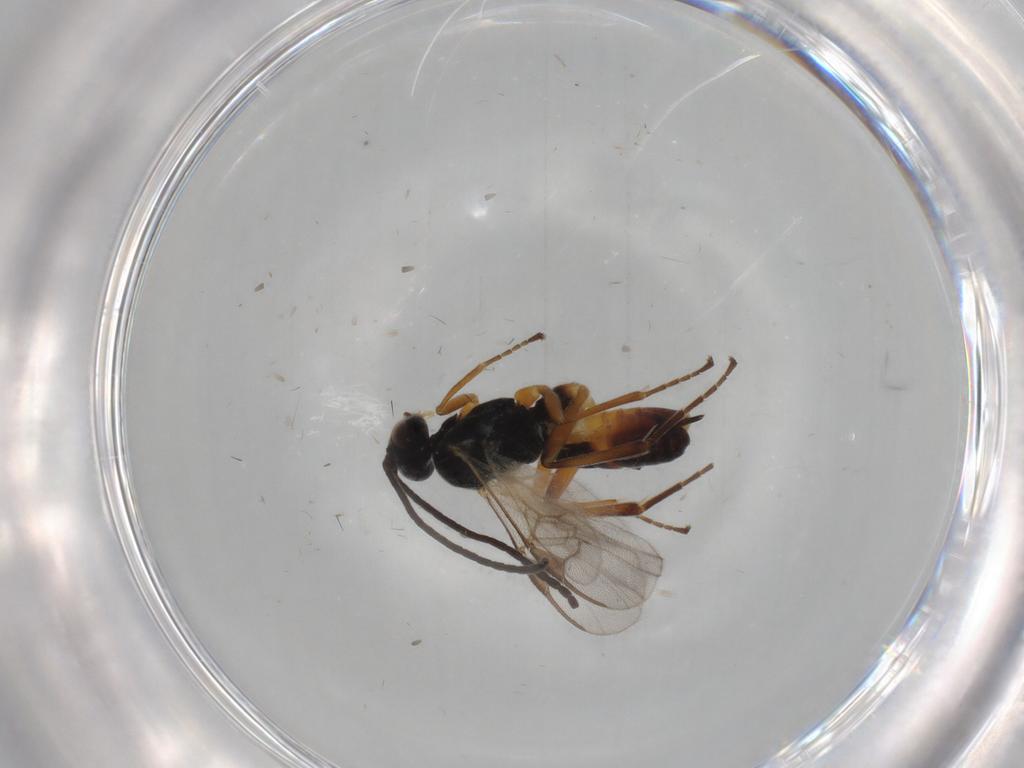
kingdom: Animalia
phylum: Arthropoda
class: Insecta
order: Hymenoptera
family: Braconidae
